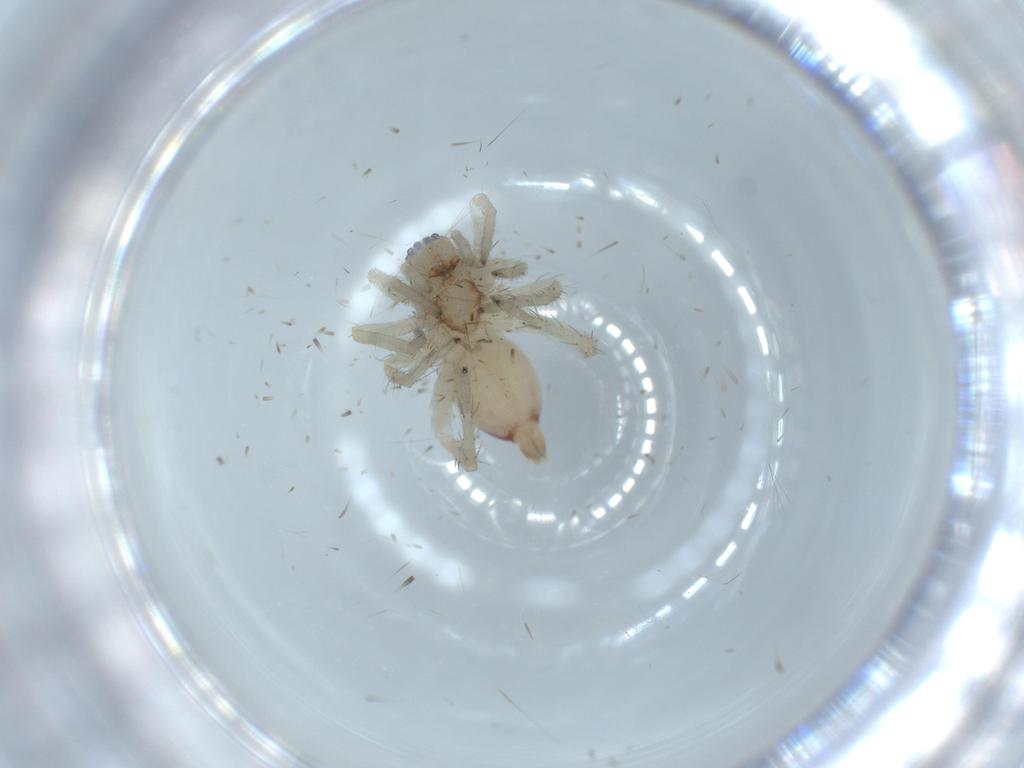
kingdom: Animalia
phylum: Arthropoda
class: Arachnida
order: Araneae
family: Clubionidae
